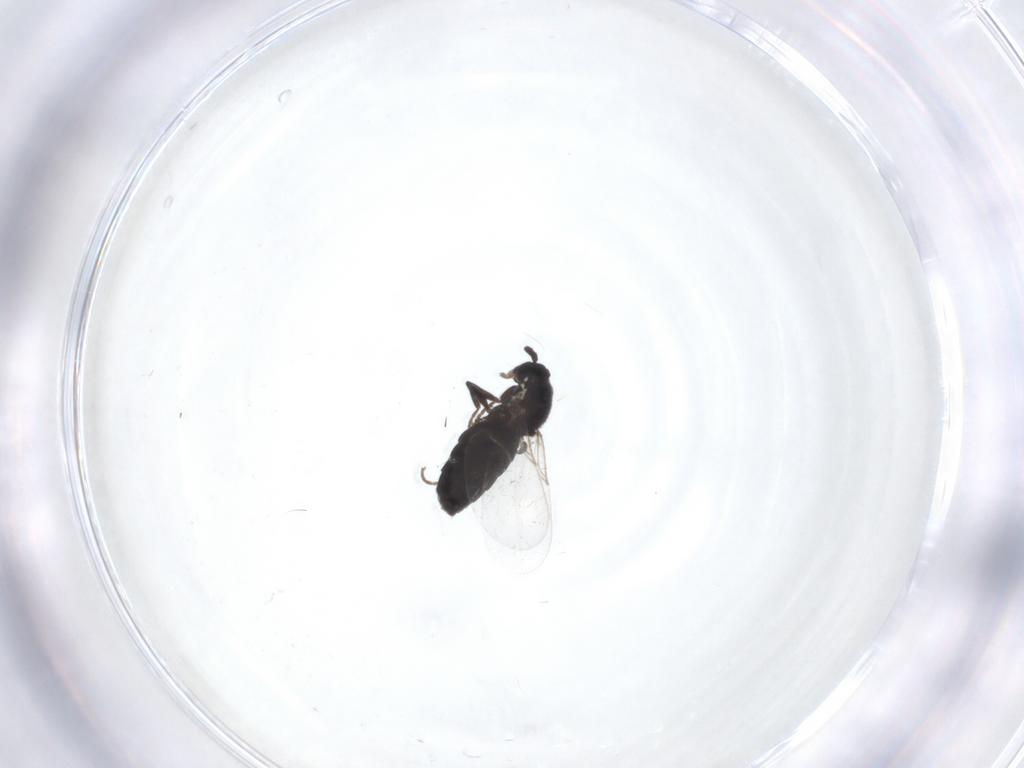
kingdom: Animalia
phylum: Arthropoda
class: Insecta
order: Diptera
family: Scatopsidae
